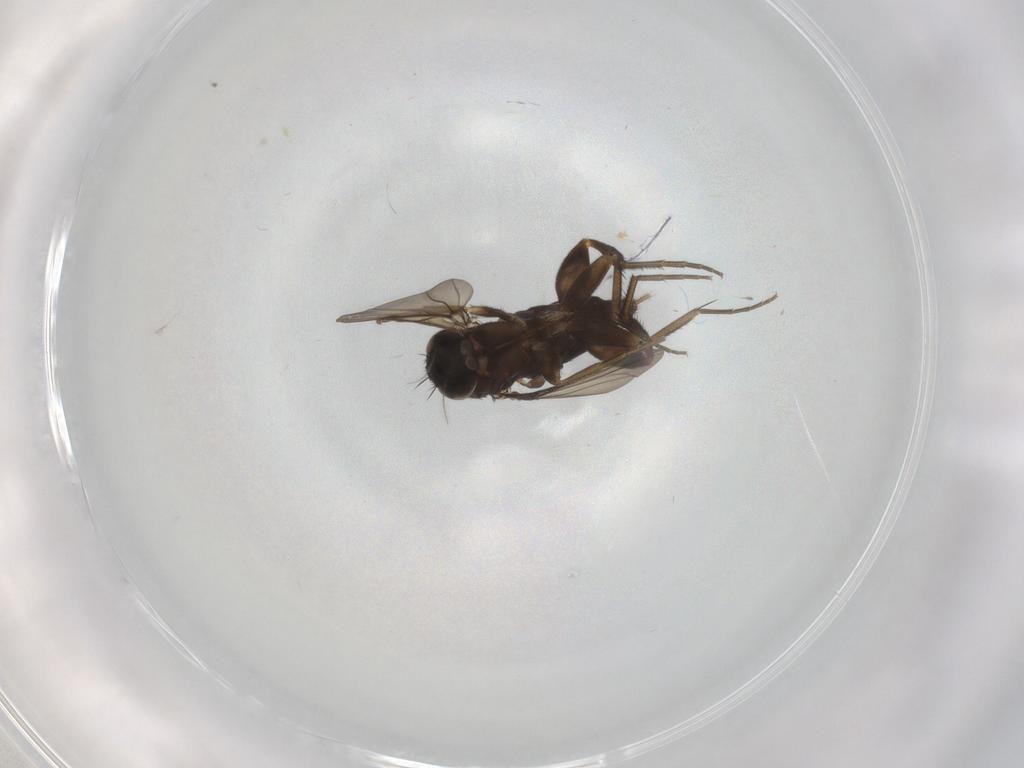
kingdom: Animalia
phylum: Arthropoda
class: Insecta
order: Diptera
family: Phoridae
